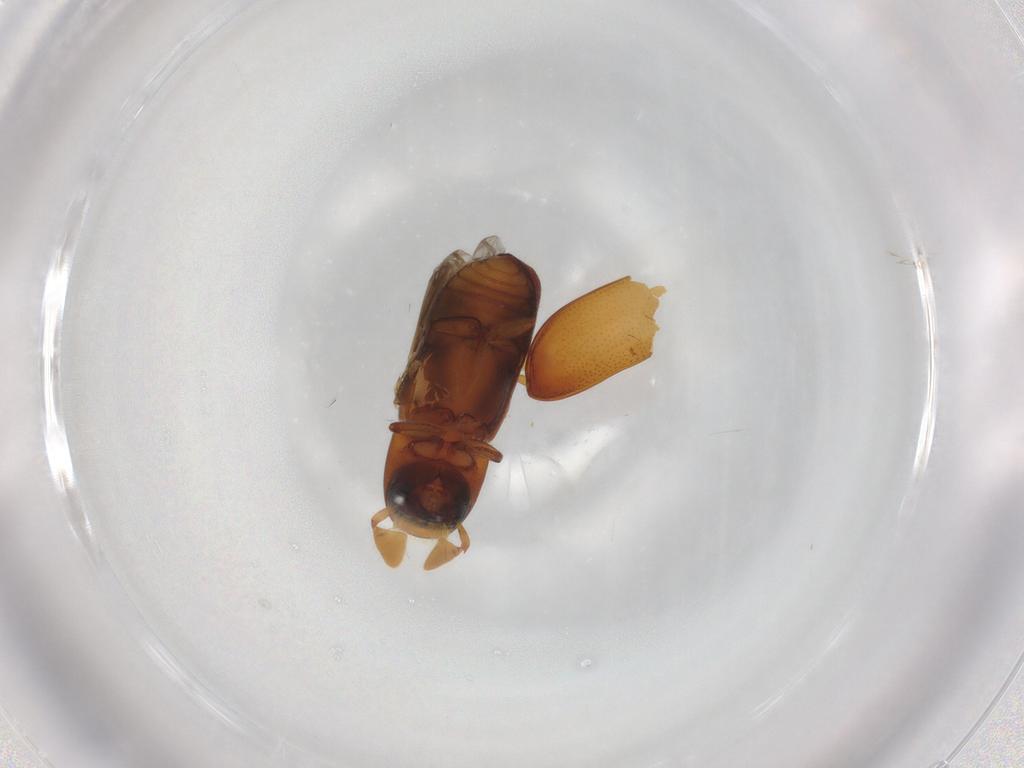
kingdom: Animalia
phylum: Arthropoda
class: Insecta
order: Coleoptera
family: Curculionidae
